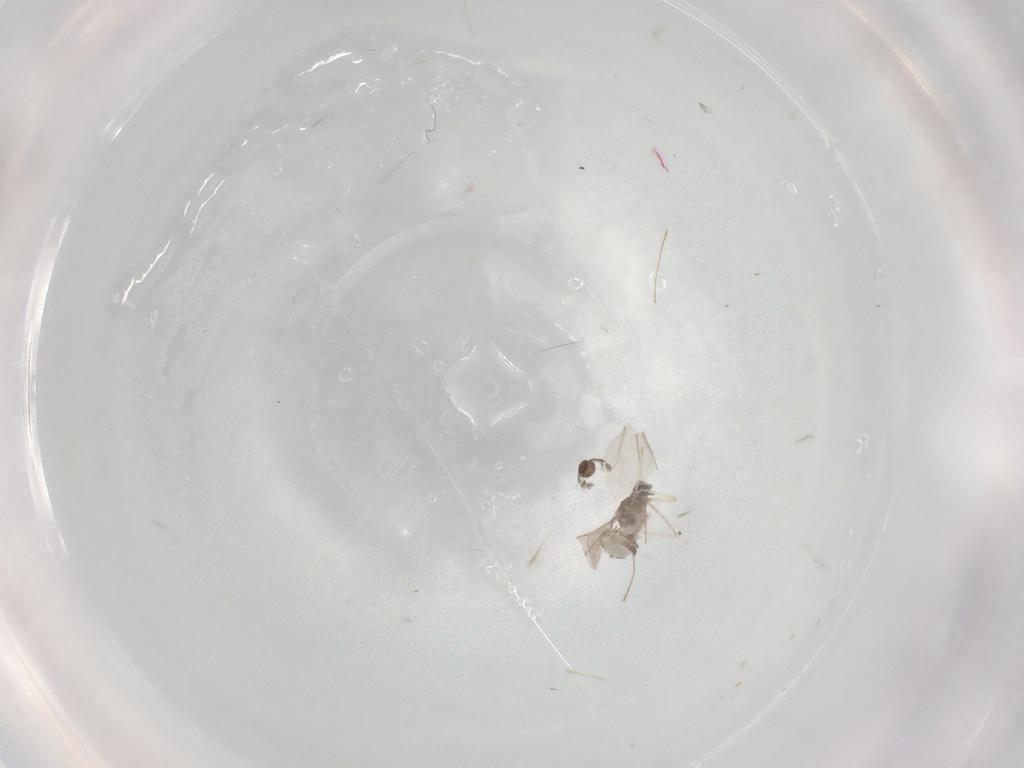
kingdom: Animalia
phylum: Arthropoda
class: Insecta
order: Diptera
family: Cecidomyiidae
